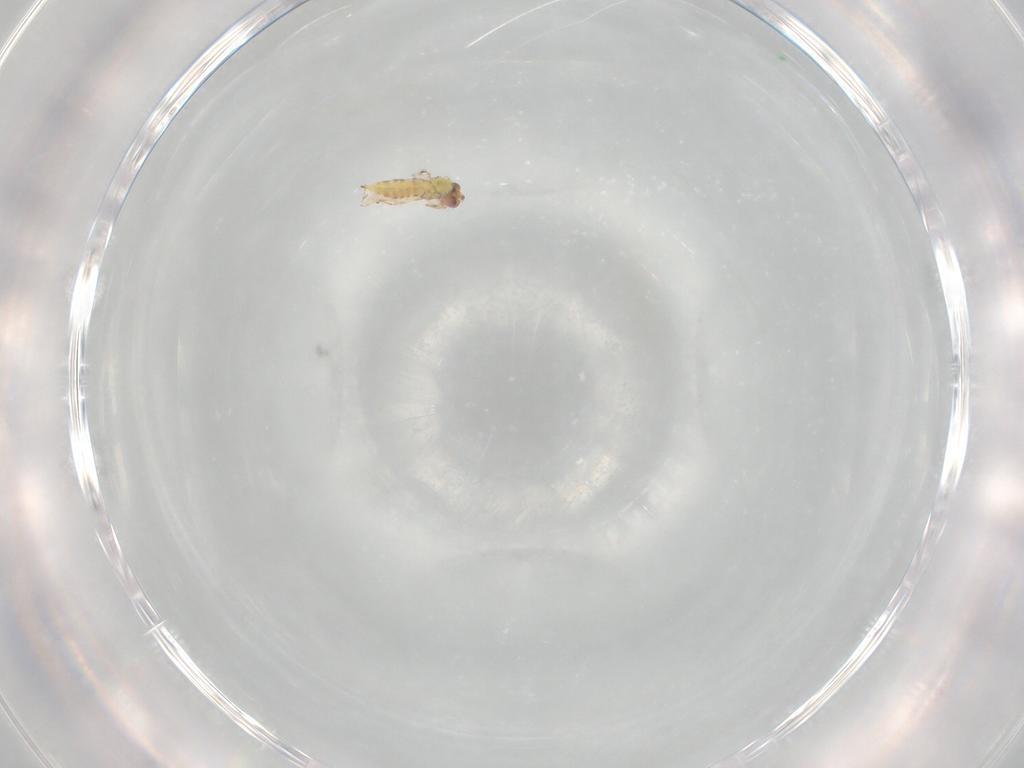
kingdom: Animalia
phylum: Arthropoda
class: Insecta
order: Hymenoptera
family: Trichogrammatidae
